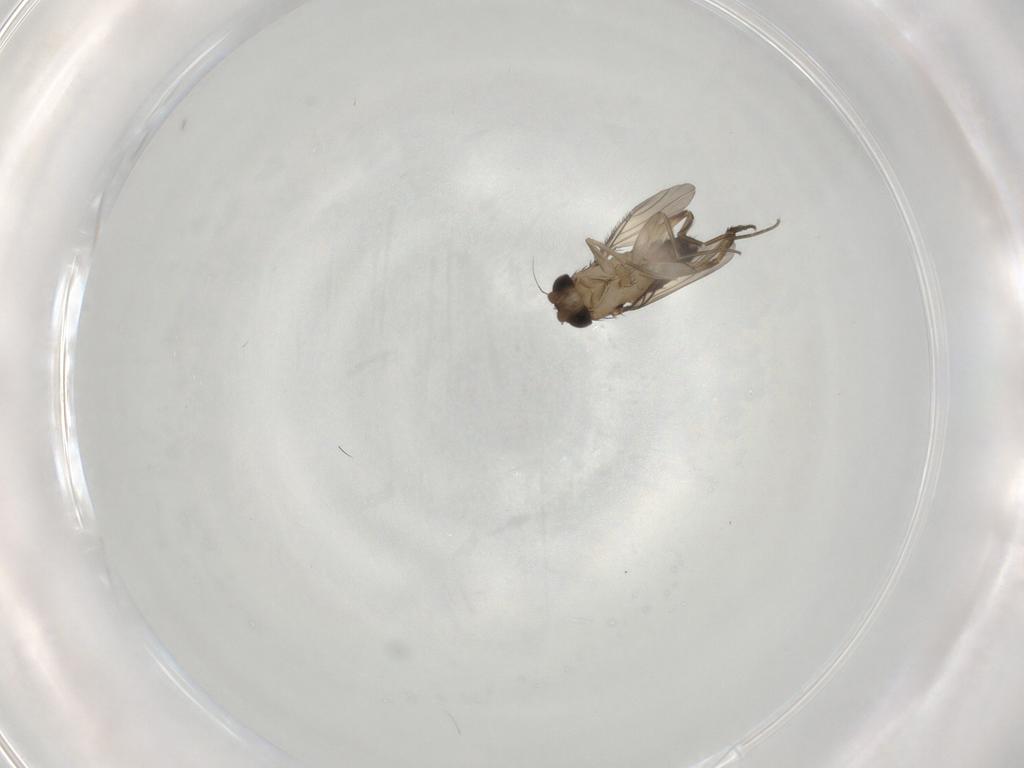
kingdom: Animalia
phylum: Arthropoda
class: Insecta
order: Diptera
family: Phoridae
